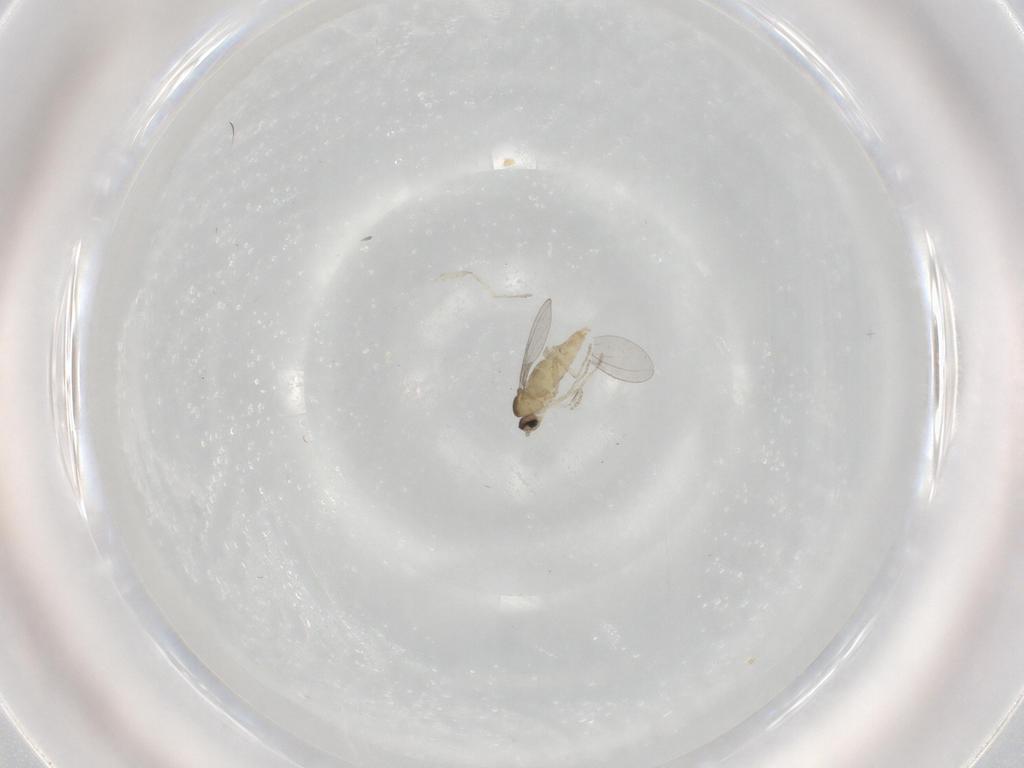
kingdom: Animalia
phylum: Arthropoda
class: Insecta
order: Diptera
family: Cecidomyiidae
